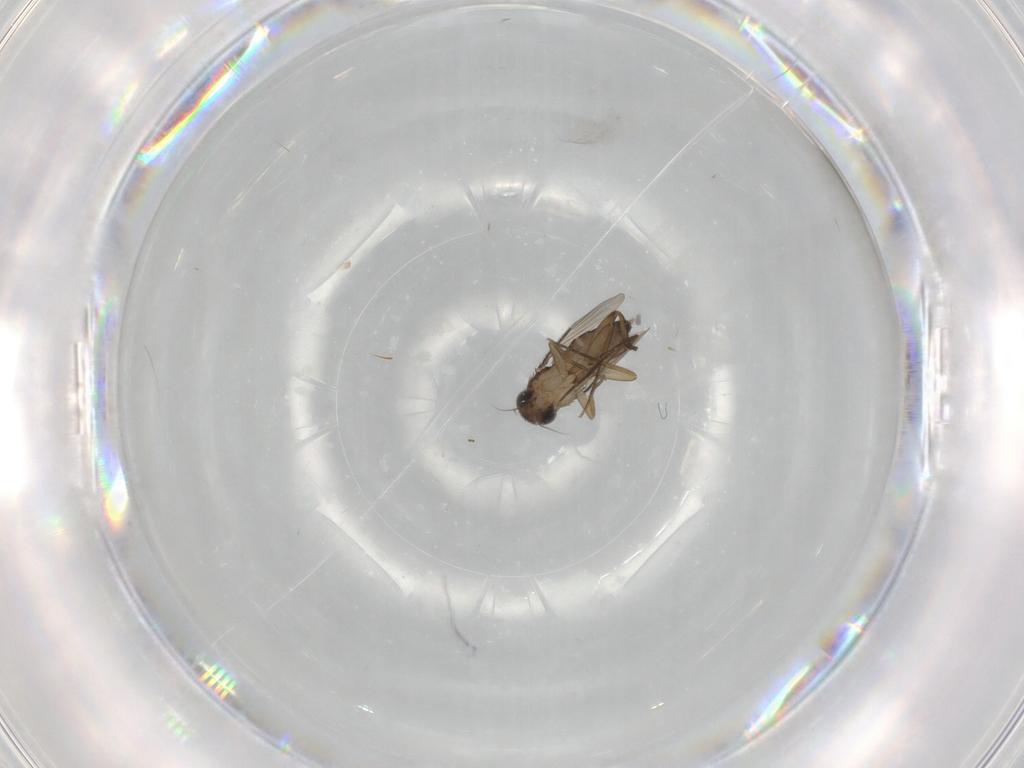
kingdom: Animalia
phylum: Arthropoda
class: Insecta
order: Diptera
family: Phoridae
